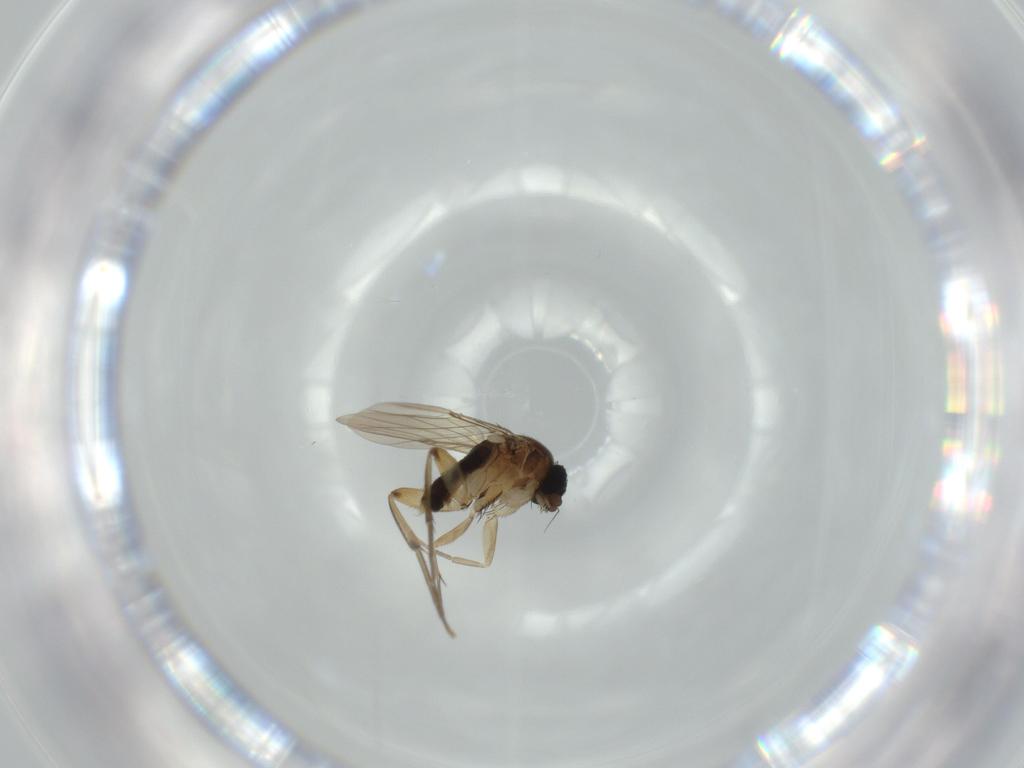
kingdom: Animalia
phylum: Arthropoda
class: Insecta
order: Diptera
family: Phoridae
